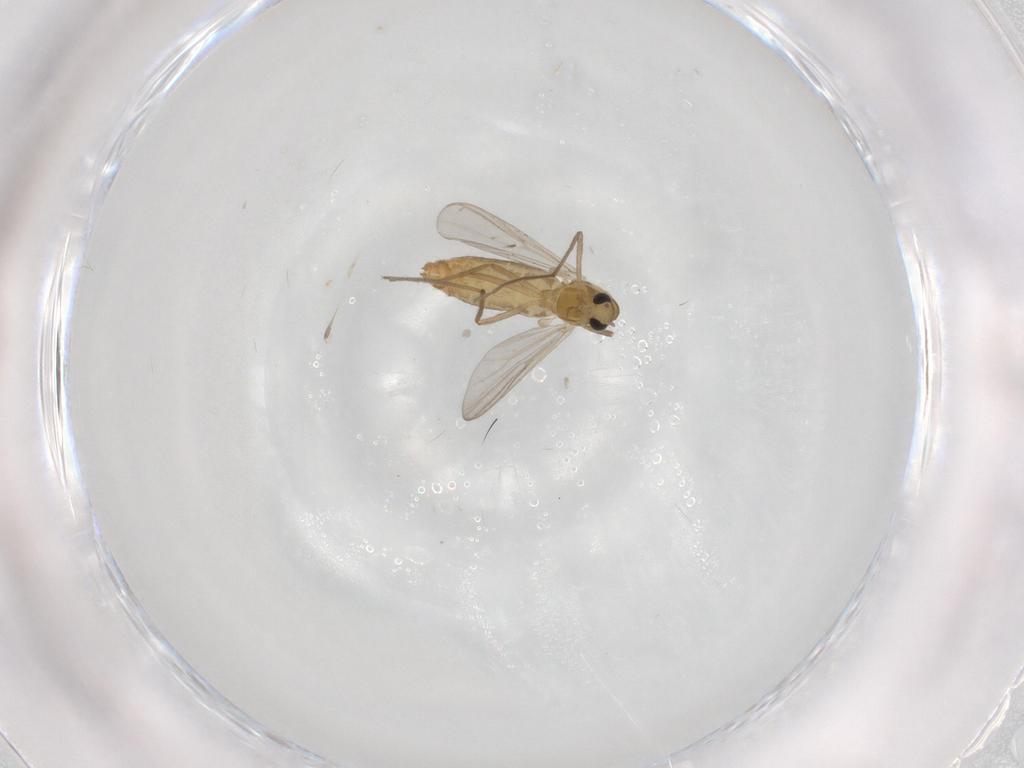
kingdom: Animalia
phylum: Arthropoda
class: Insecta
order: Diptera
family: Chironomidae
